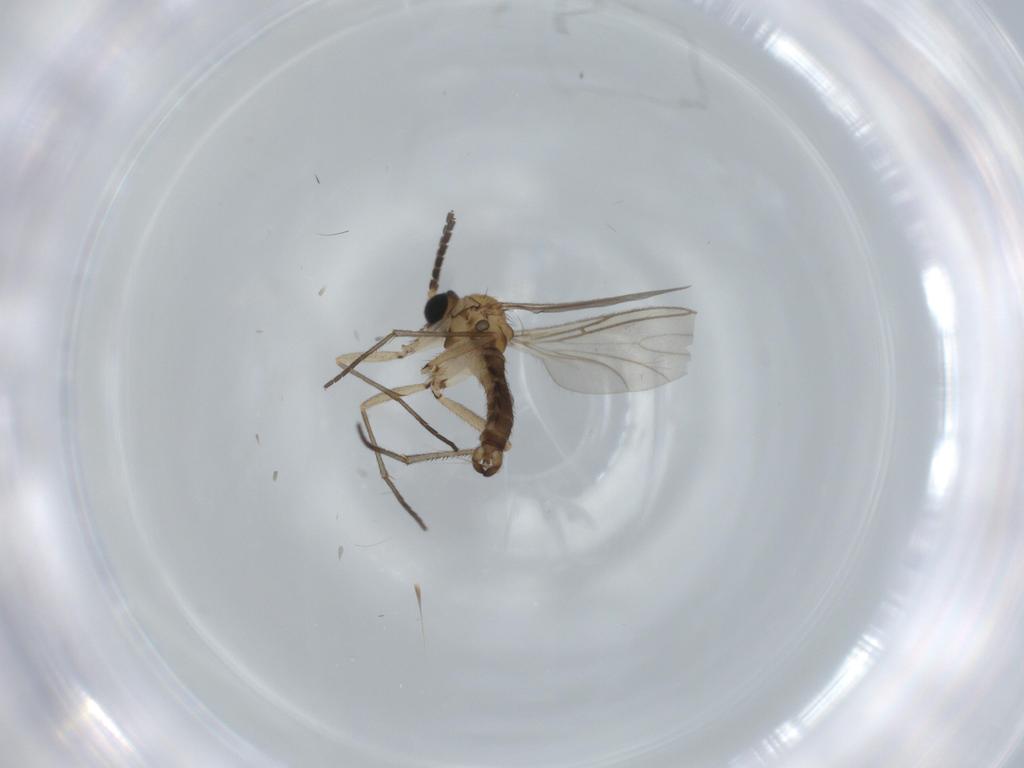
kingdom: Animalia
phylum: Arthropoda
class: Insecta
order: Diptera
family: Phoridae
